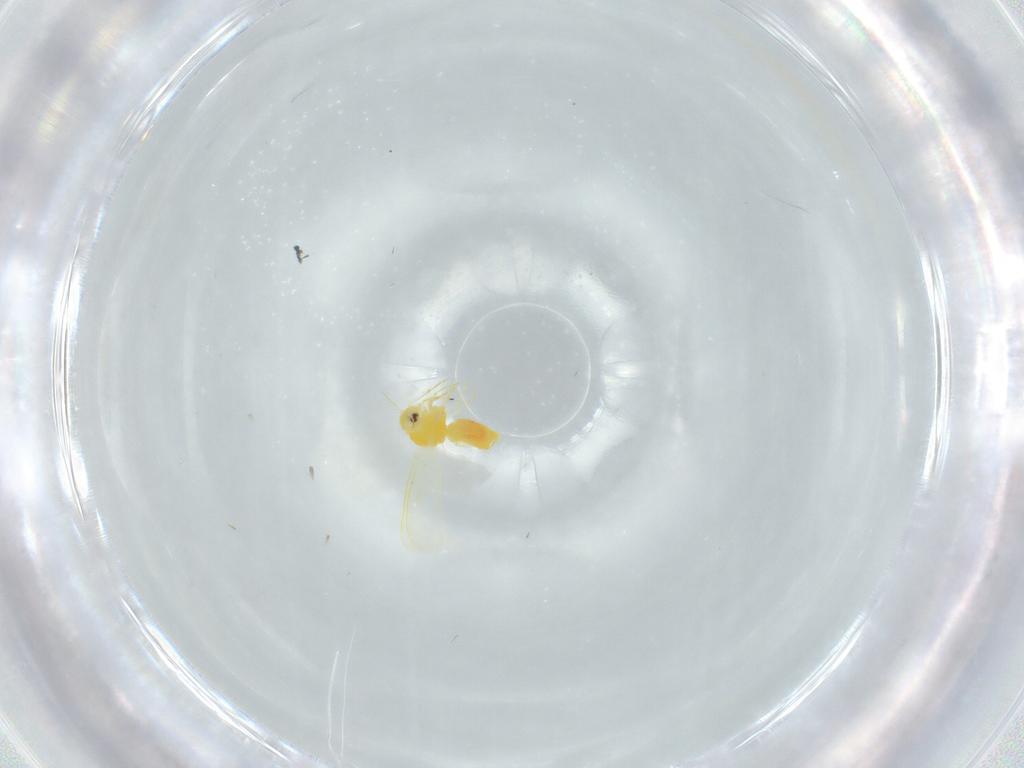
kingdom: Animalia
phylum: Arthropoda
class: Insecta
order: Hemiptera
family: Aleyrodidae
